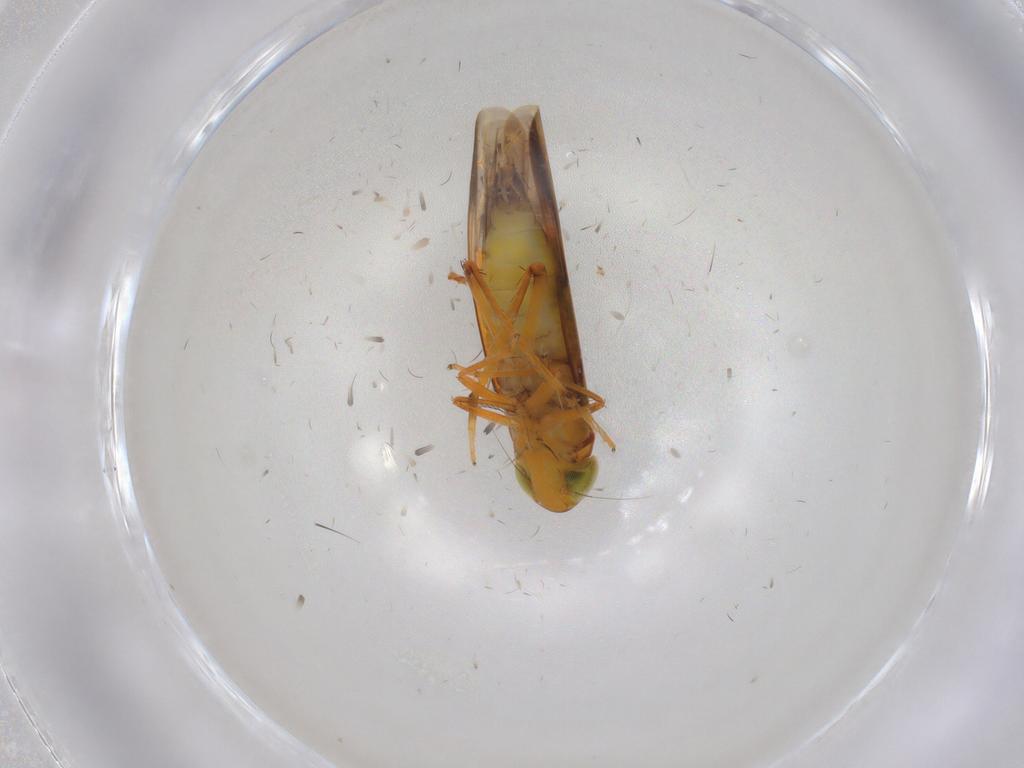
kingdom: Animalia
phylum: Arthropoda
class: Insecta
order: Hemiptera
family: Cicadellidae
